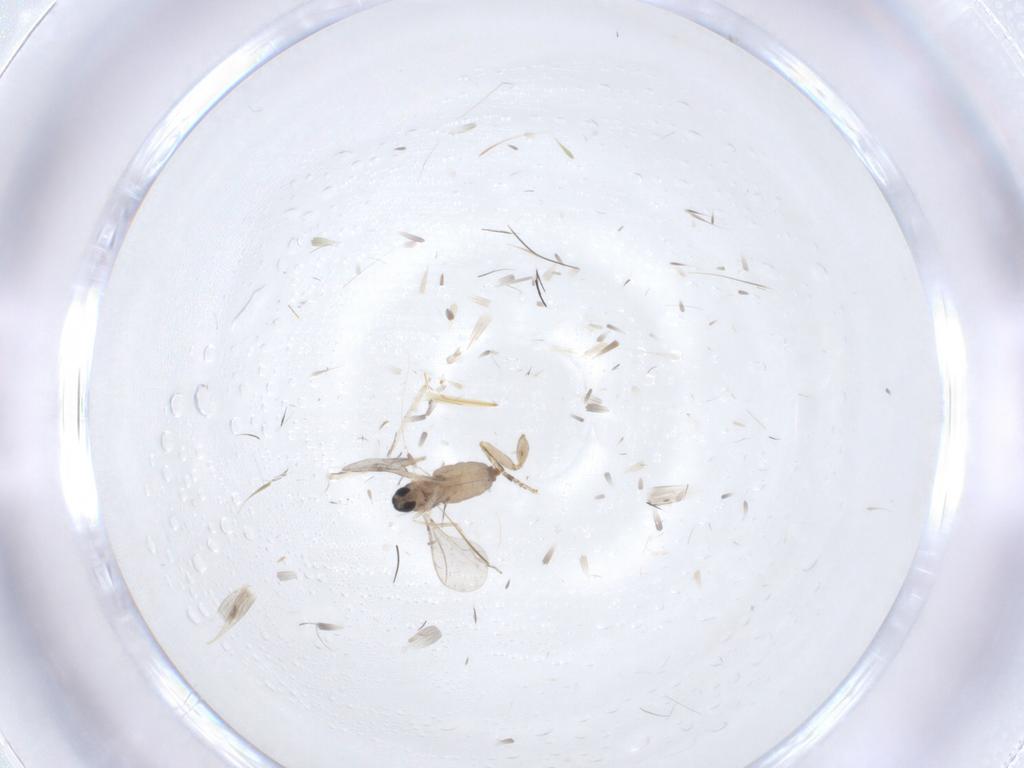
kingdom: Animalia
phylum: Arthropoda
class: Insecta
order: Diptera
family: Cecidomyiidae
